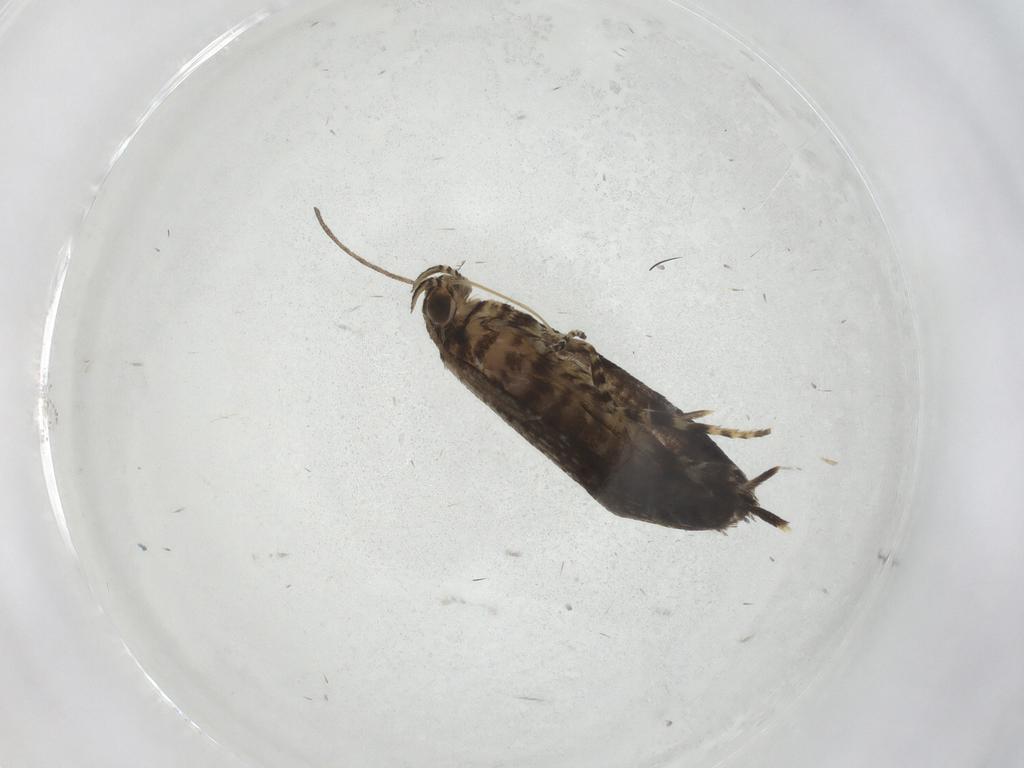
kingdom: Animalia
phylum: Arthropoda
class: Insecta
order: Lepidoptera
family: Geometridae
